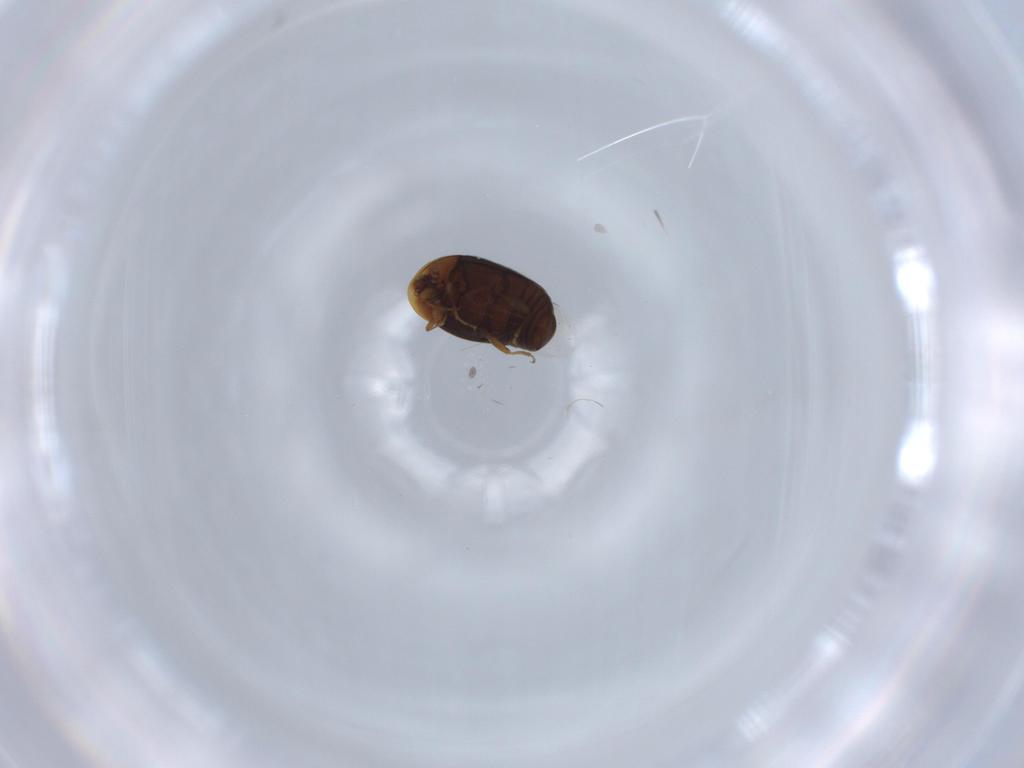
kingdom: Animalia
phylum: Arthropoda
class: Insecta
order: Coleoptera
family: Corylophidae
